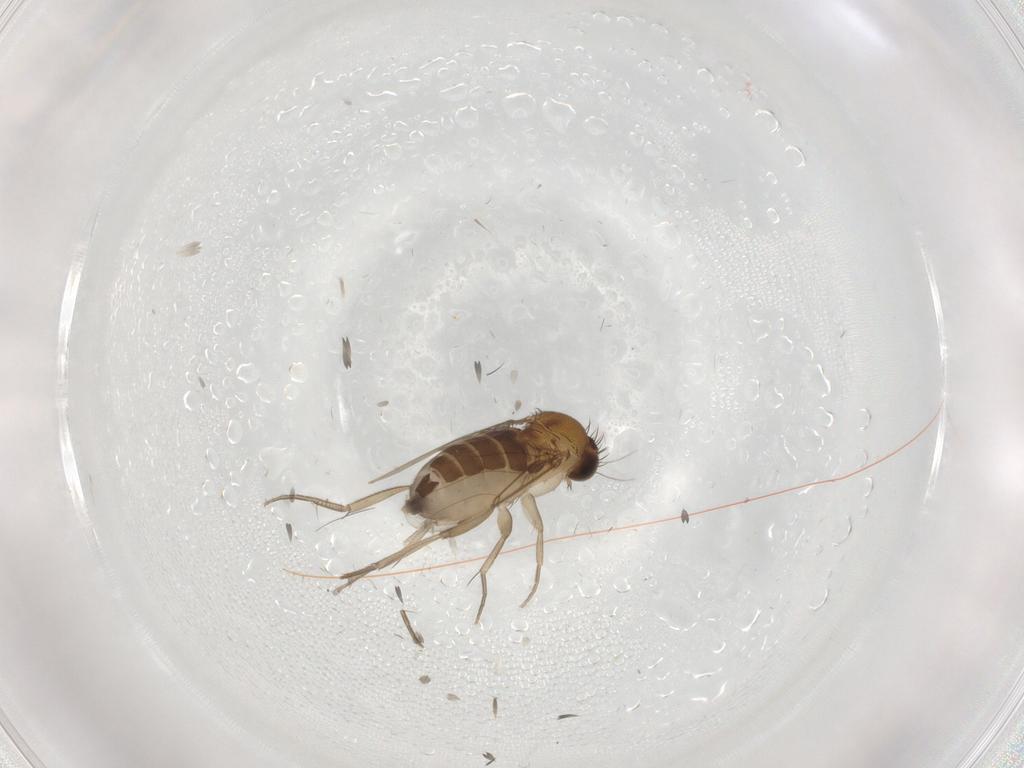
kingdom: Animalia
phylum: Arthropoda
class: Insecta
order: Diptera
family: Phoridae
